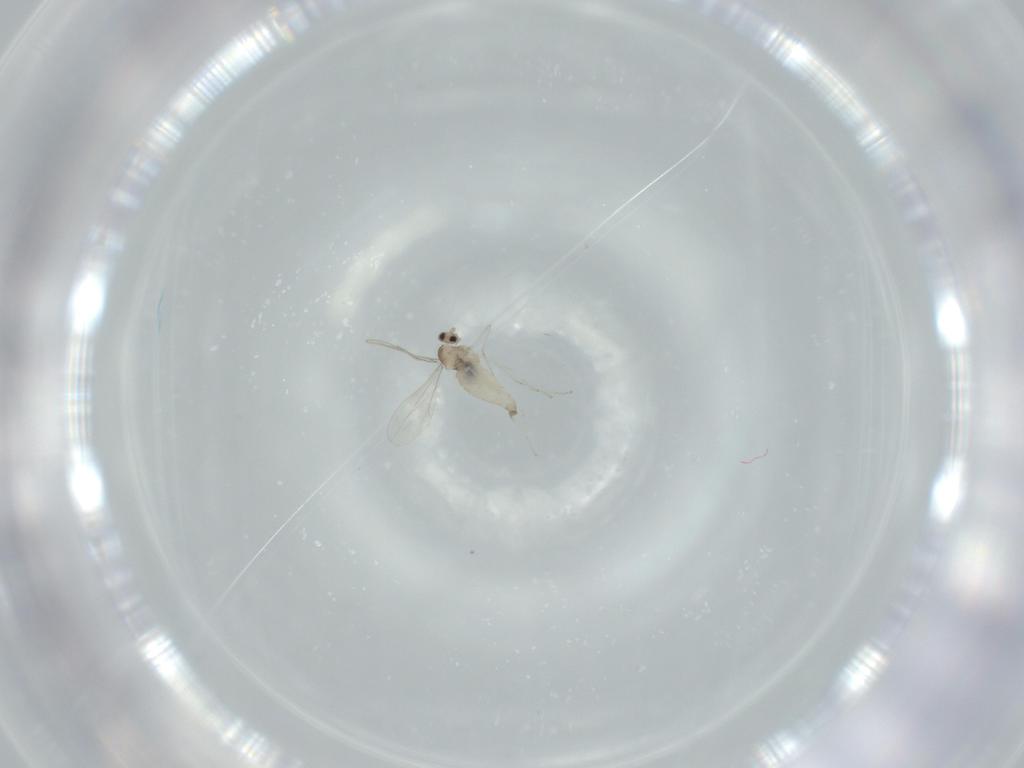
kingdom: Animalia
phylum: Arthropoda
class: Insecta
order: Diptera
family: Cecidomyiidae
